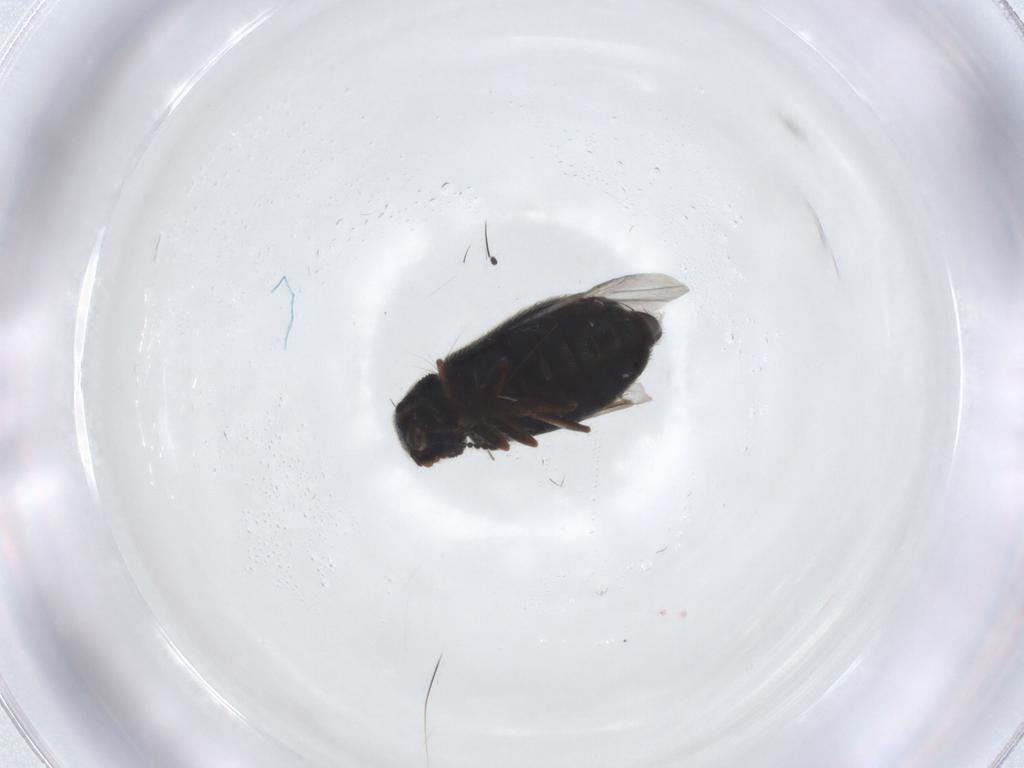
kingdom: Animalia
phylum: Arthropoda
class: Insecta
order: Coleoptera
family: Melyridae
